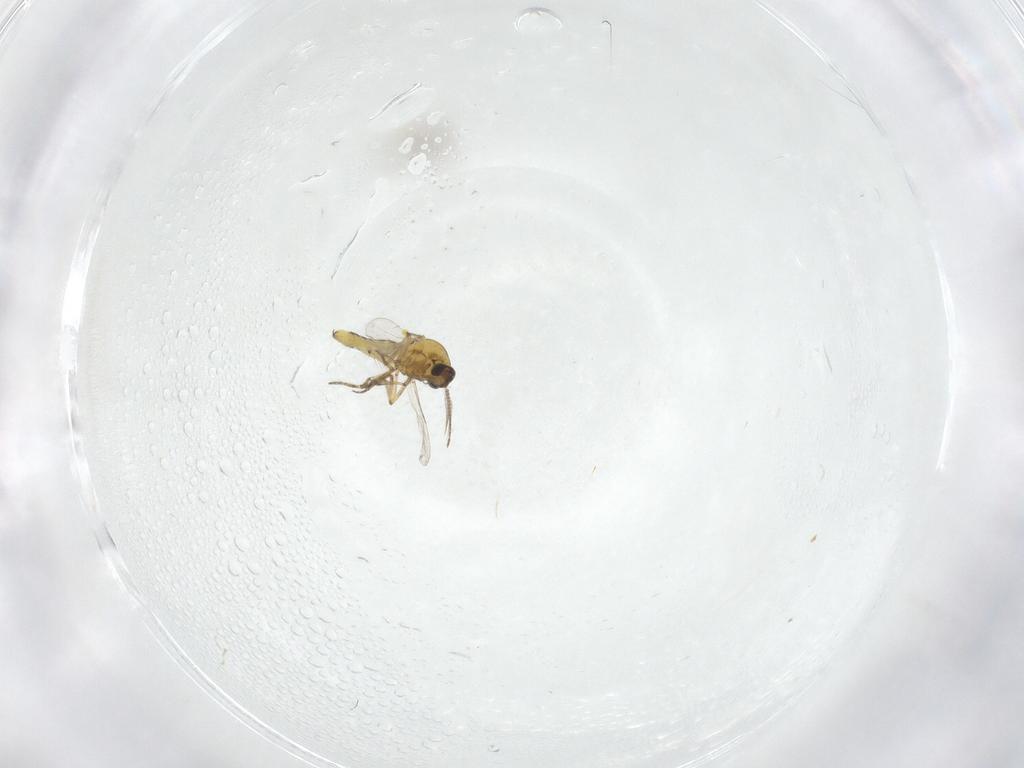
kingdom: Animalia
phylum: Arthropoda
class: Insecta
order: Diptera
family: Ceratopogonidae
